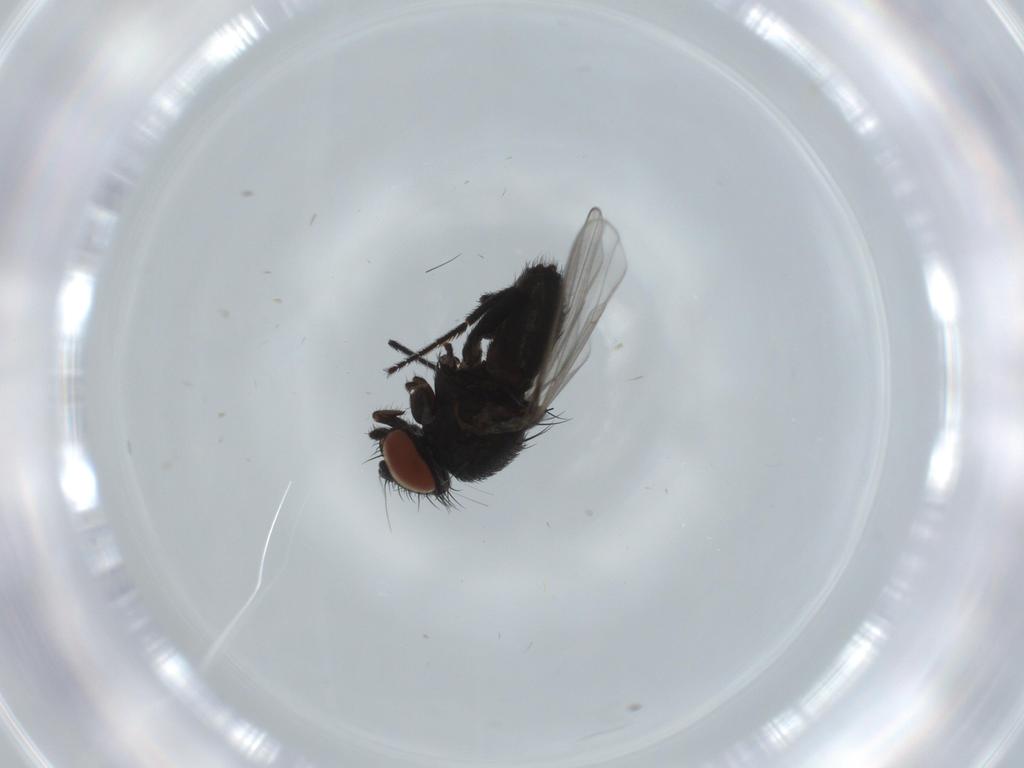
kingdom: Animalia
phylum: Arthropoda
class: Insecta
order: Diptera
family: Milichiidae
